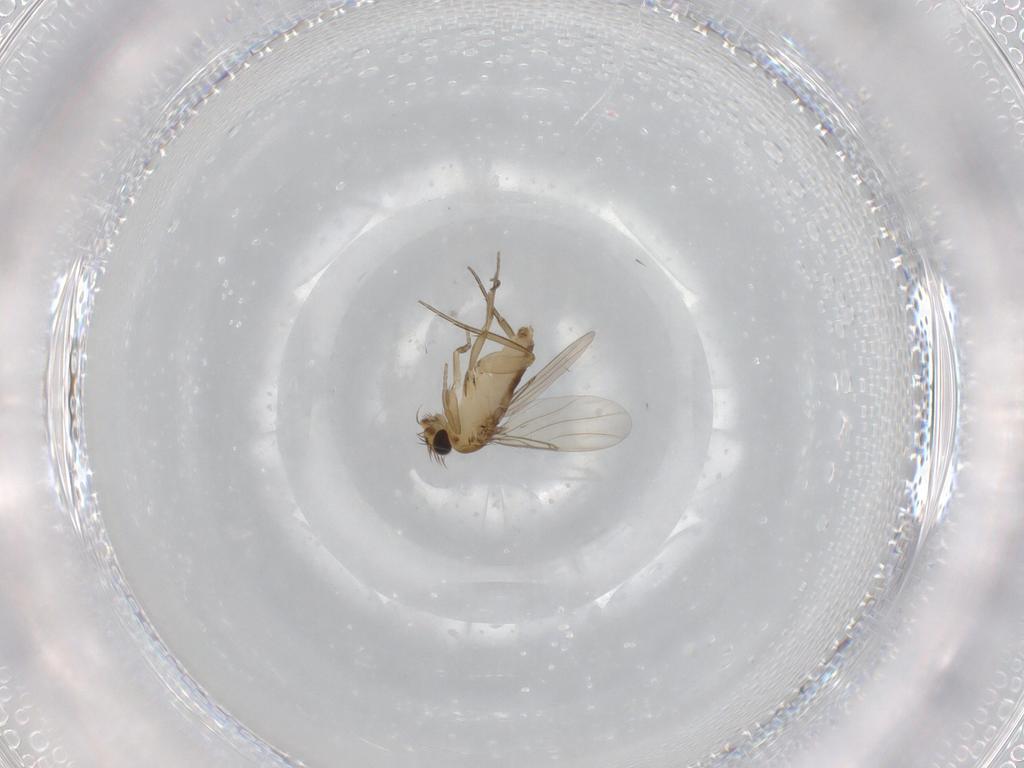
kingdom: Animalia
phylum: Arthropoda
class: Insecta
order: Diptera
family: Phoridae
